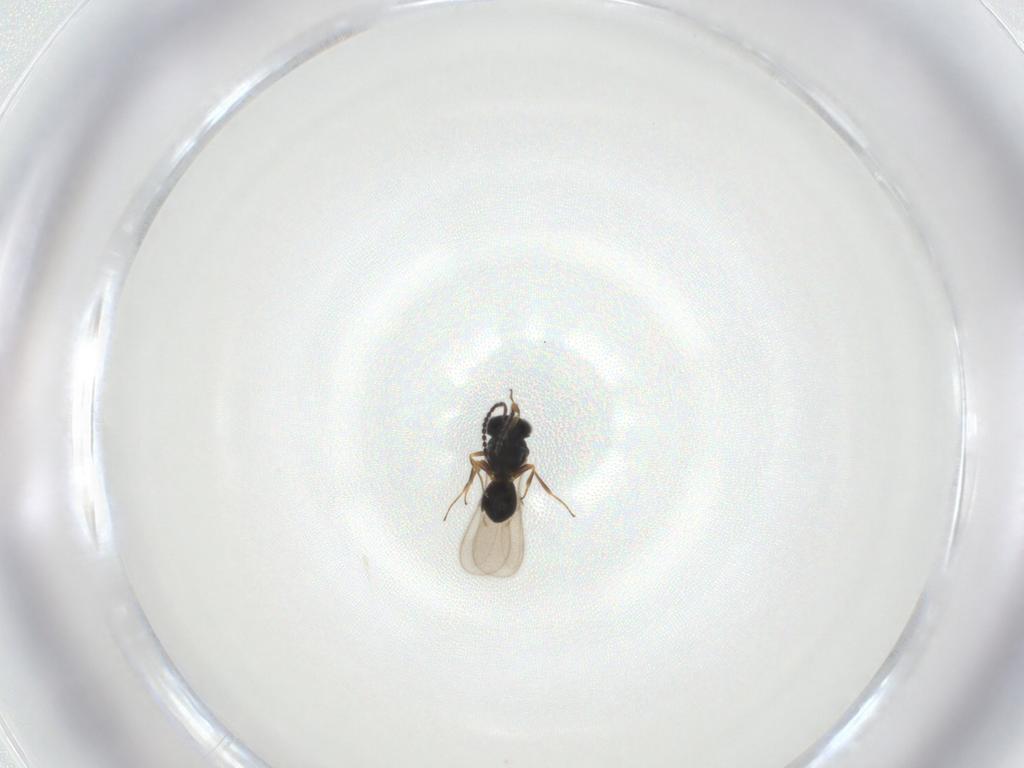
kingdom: Animalia
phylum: Arthropoda
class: Insecta
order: Hymenoptera
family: Scelionidae
